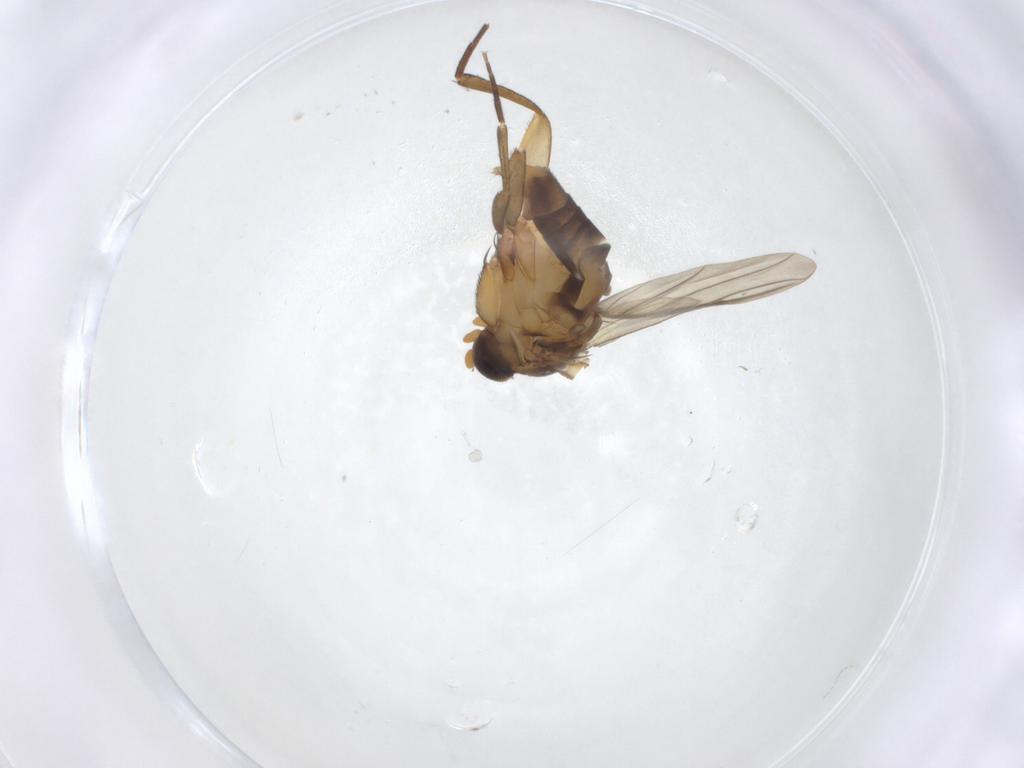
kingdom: Animalia
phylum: Arthropoda
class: Insecta
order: Diptera
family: Phoridae
